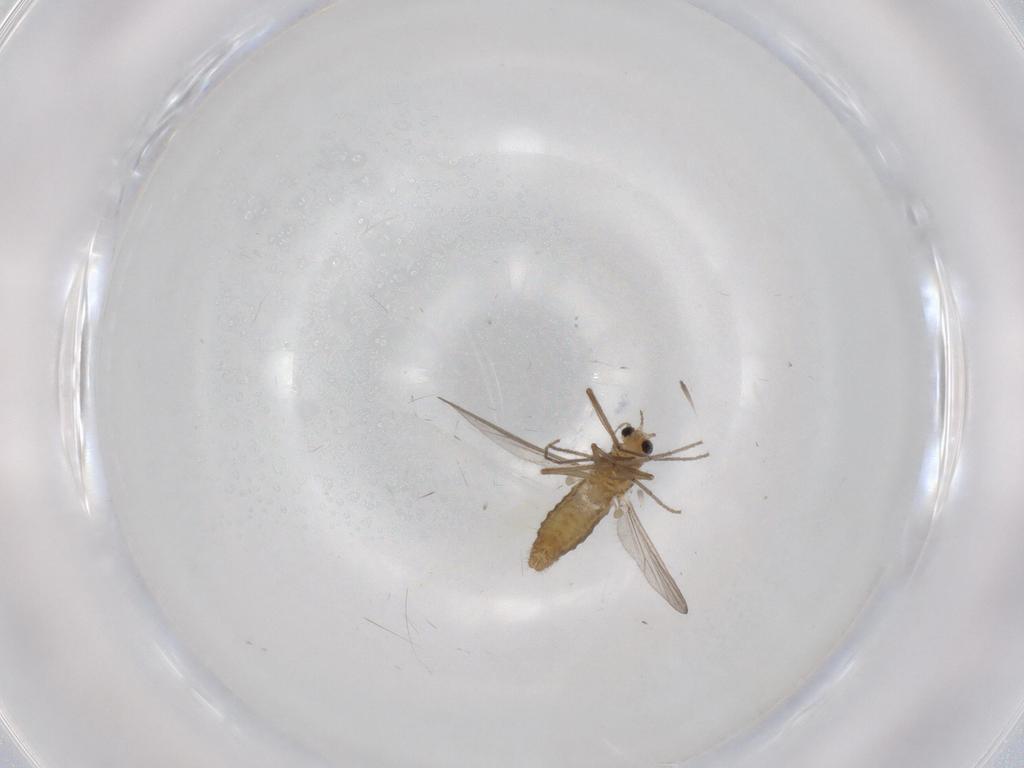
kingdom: Animalia
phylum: Arthropoda
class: Insecta
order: Diptera
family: Chironomidae
